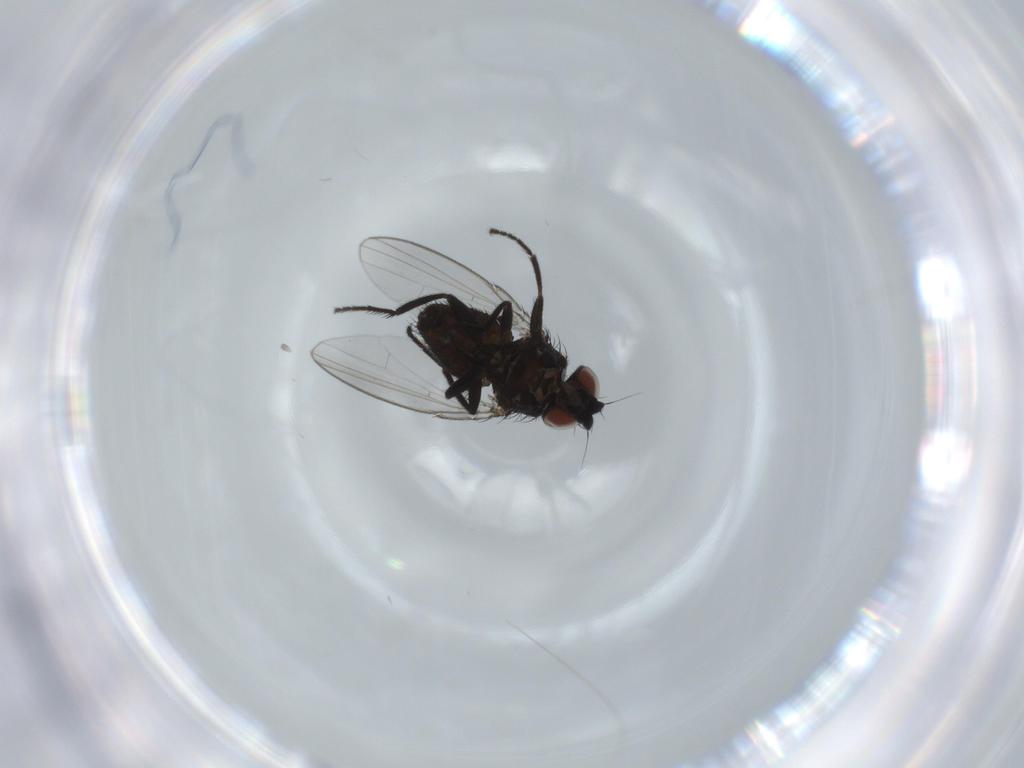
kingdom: Animalia
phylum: Arthropoda
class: Insecta
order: Diptera
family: Milichiidae
